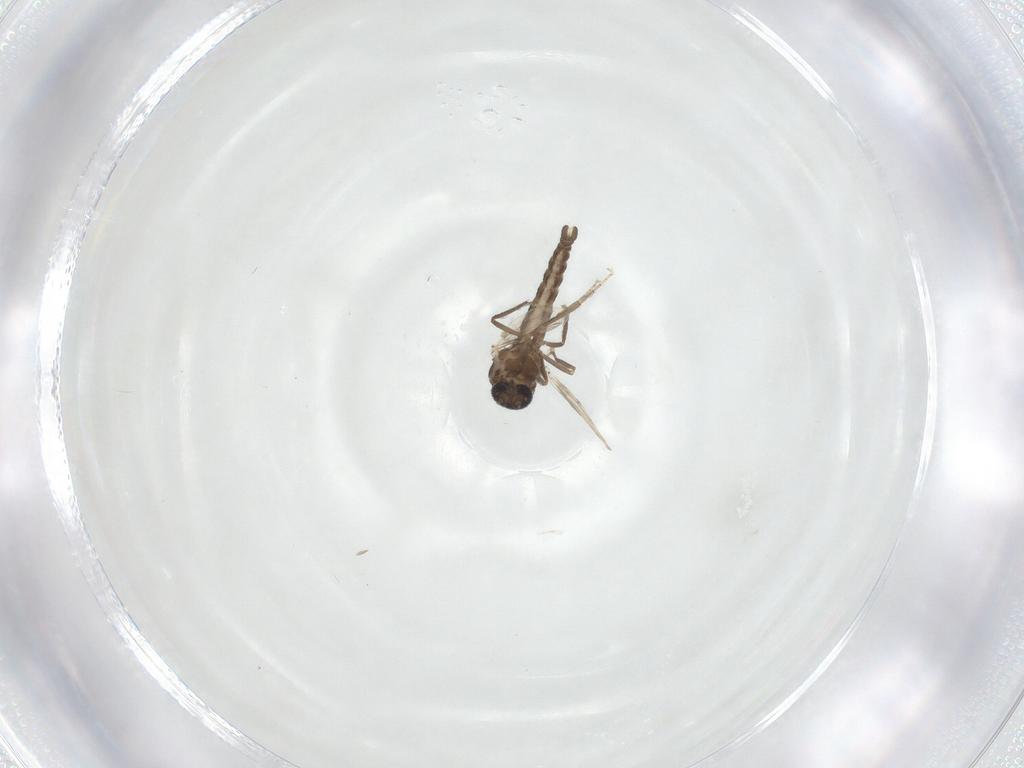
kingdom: Animalia
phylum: Arthropoda
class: Insecta
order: Diptera
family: Ceratopogonidae
